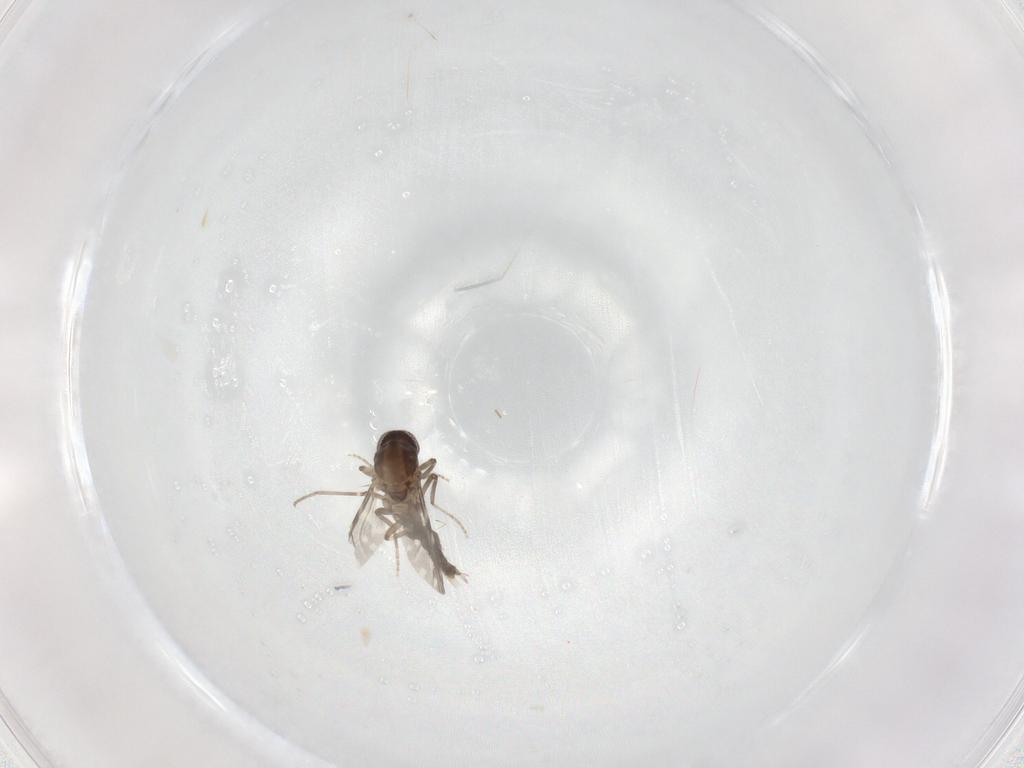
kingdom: Animalia
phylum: Arthropoda
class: Insecta
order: Diptera
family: Ceratopogonidae
